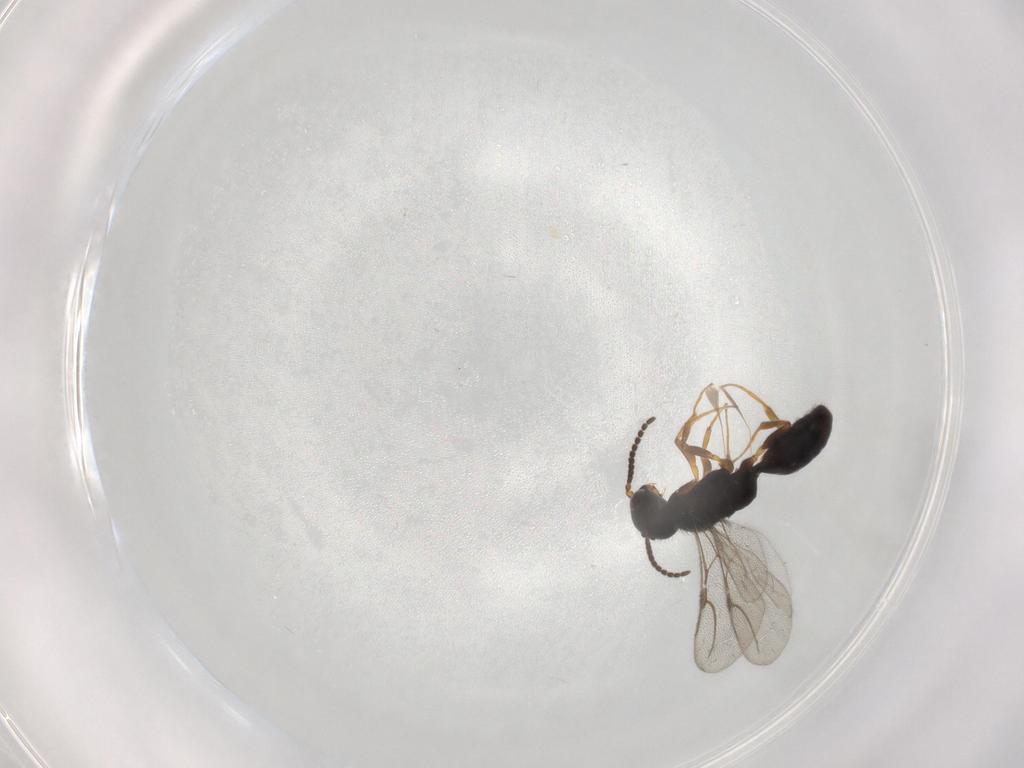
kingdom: Animalia
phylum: Arthropoda
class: Insecta
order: Hymenoptera
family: Bethylidae
